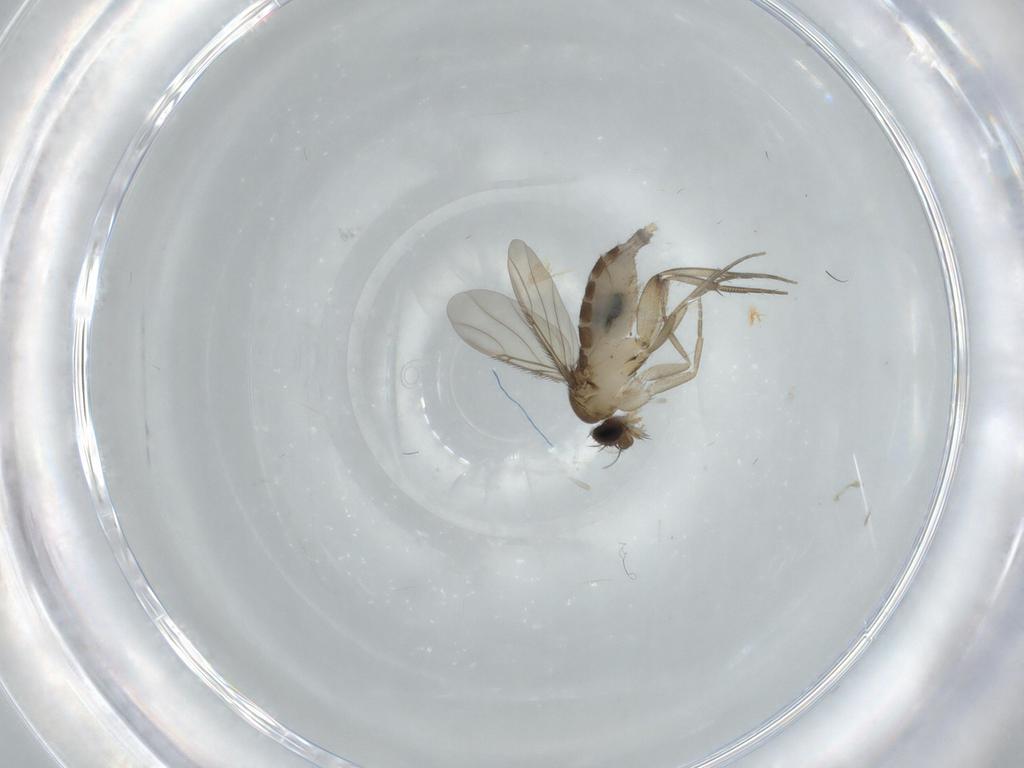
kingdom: Animalia
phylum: Arthropoda
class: Insecta
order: Diptera
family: Phoridae
